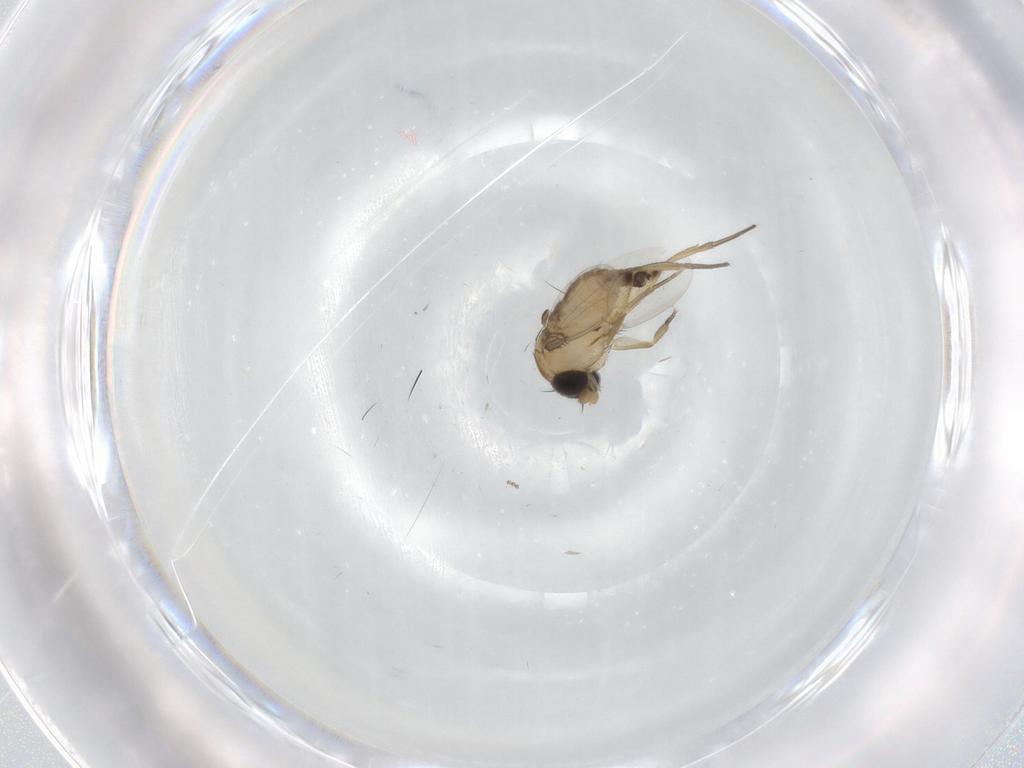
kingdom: Animalia
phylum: Arthropoda
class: Insecta
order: Diptera
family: Phoridae
